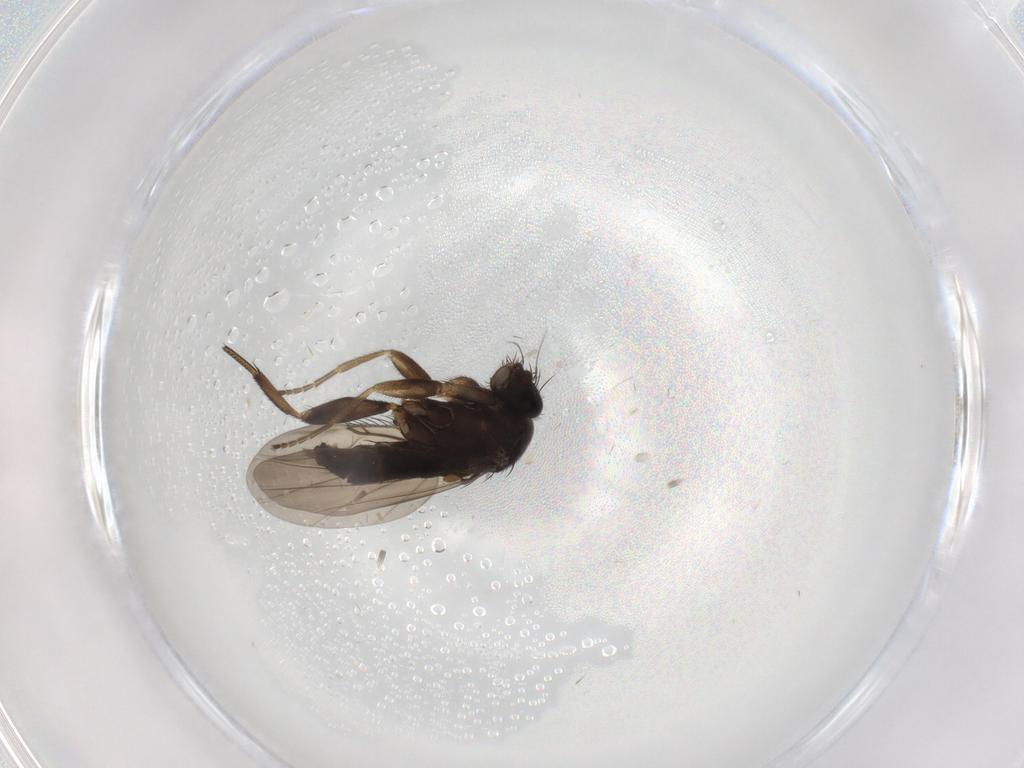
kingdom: Animalia
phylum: Arthropoda
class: Insecta
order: Diptera
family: Phoridae
